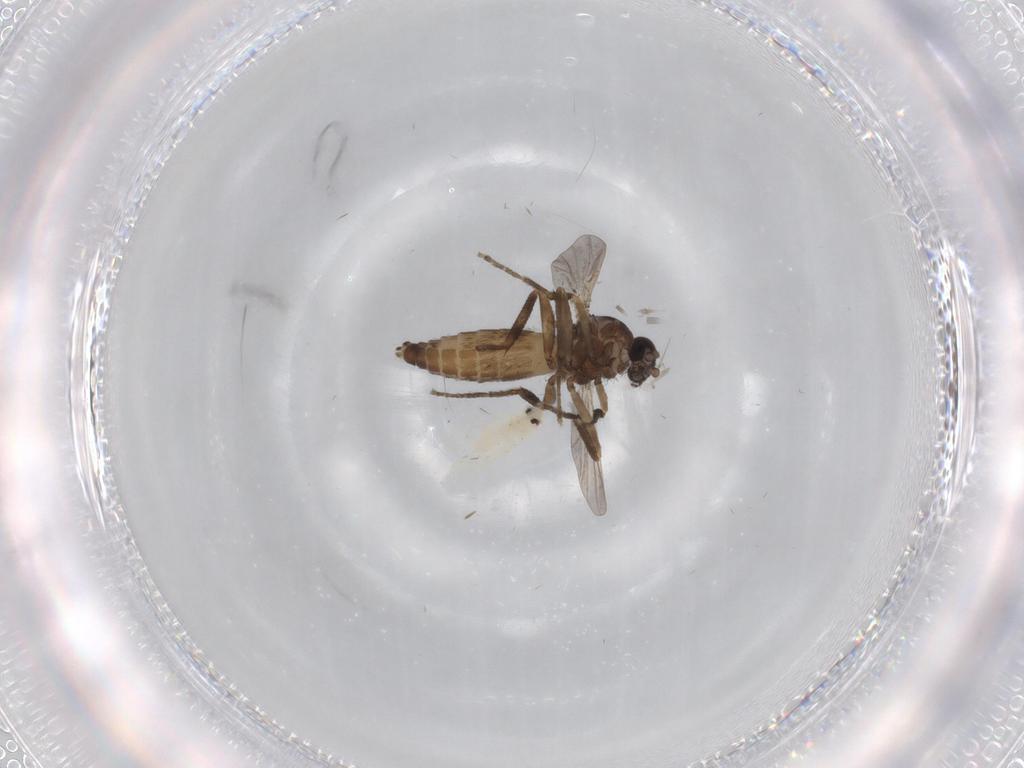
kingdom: Animalia
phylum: Arthropoda
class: Insecta
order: Diptera
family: Ceratopogonidae
